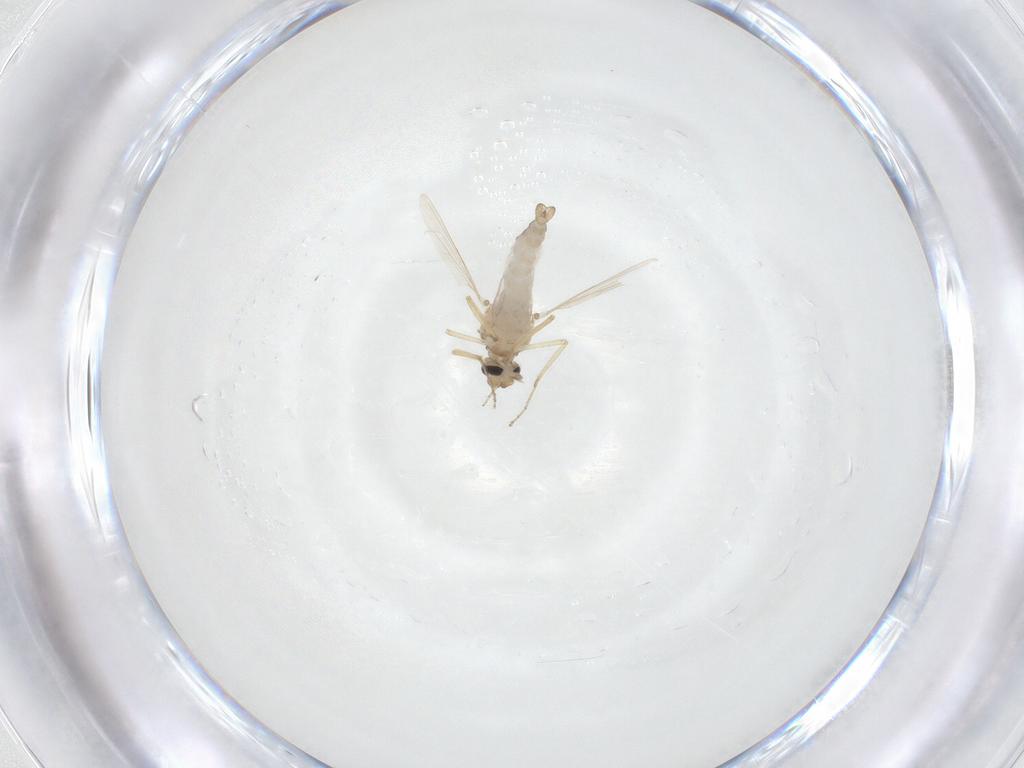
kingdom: Animalia
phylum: Arthropoda
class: Insecta
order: Diptera
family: Ceratopogonidae
